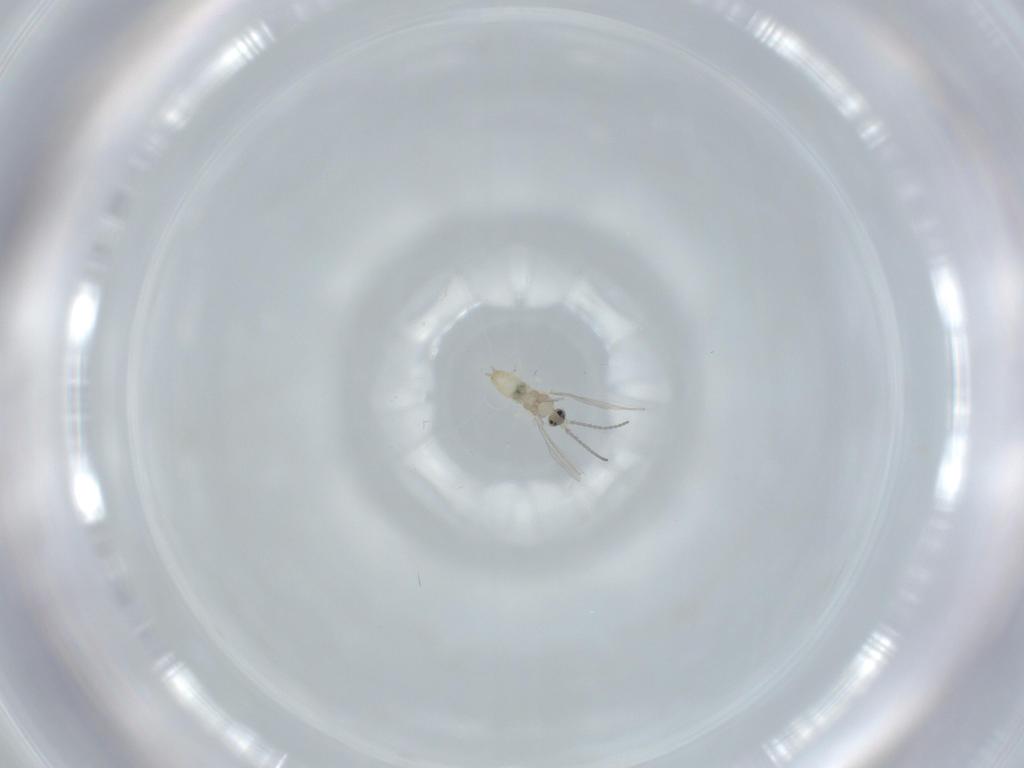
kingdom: Animalia
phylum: Arthropoda
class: Insecta
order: Diptera
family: Cecidomyiidae
